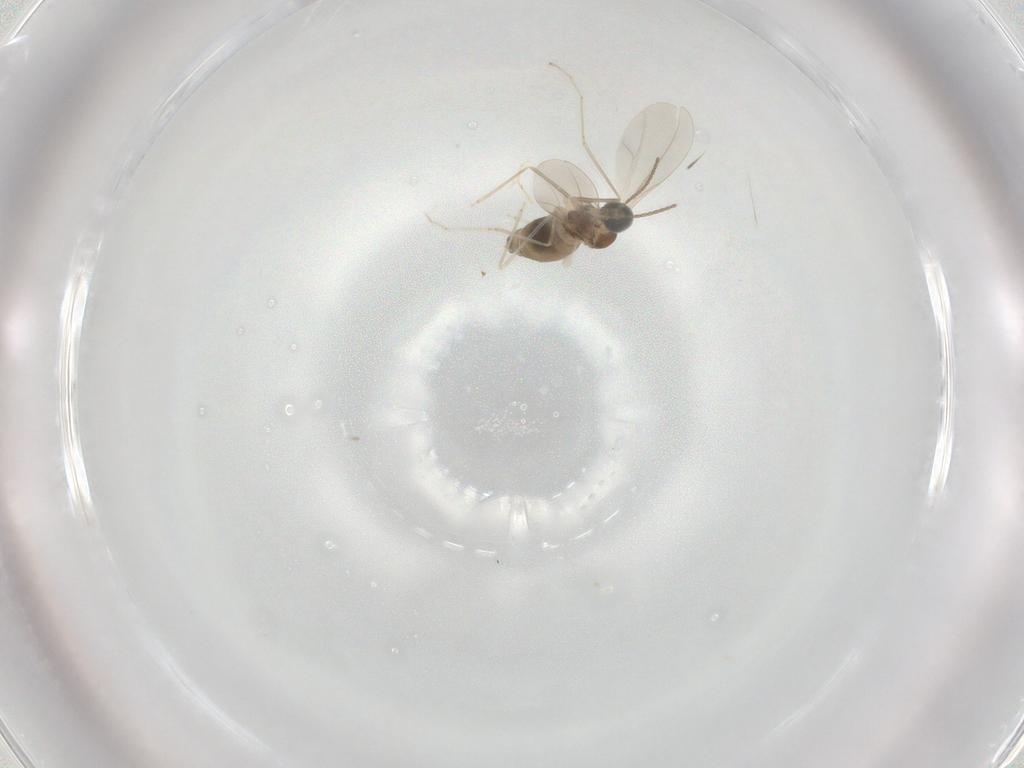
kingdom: Animalia
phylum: Arthropoda
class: Insecta
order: Diptera
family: Cecidomyiidae
